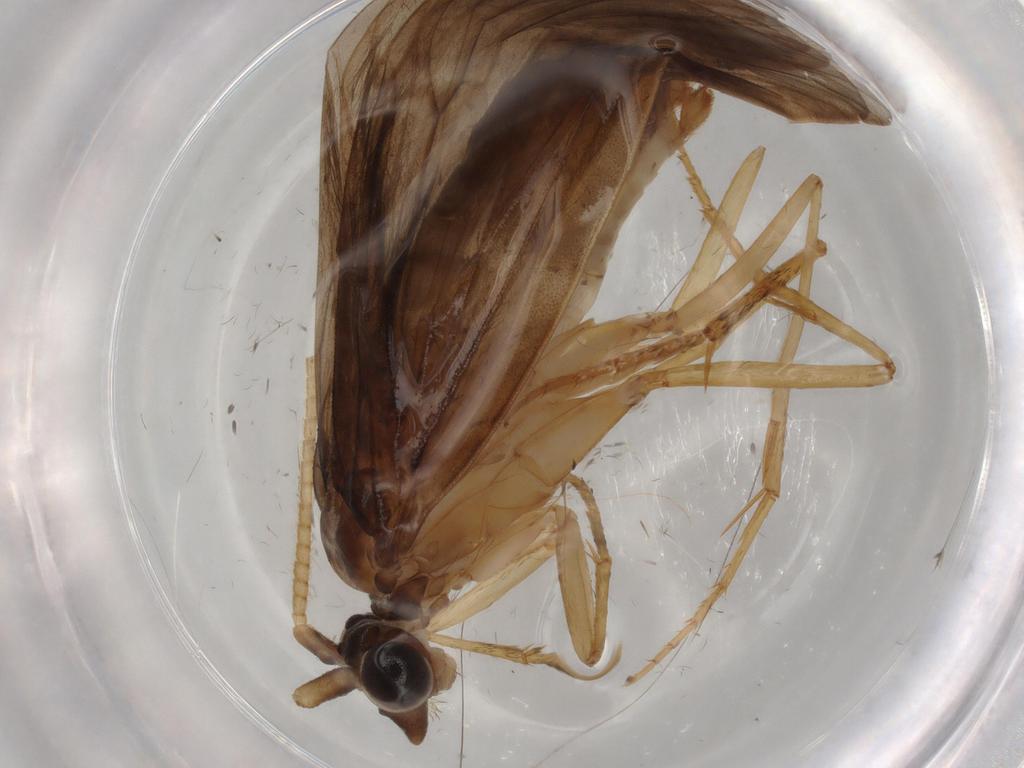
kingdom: Animalia
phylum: Arthropoda
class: Insecta
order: Trichoptera
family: Lepidostomatidae
